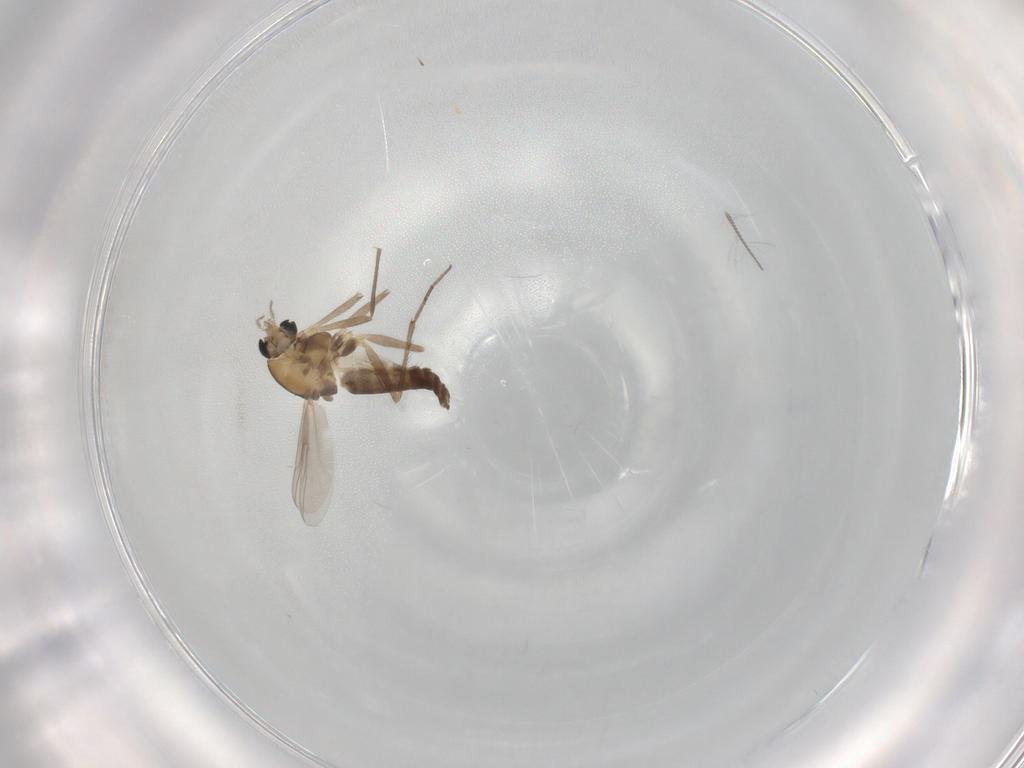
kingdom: Animalia
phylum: Arthropoda
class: Insecta
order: Diptera
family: Chironomidae
